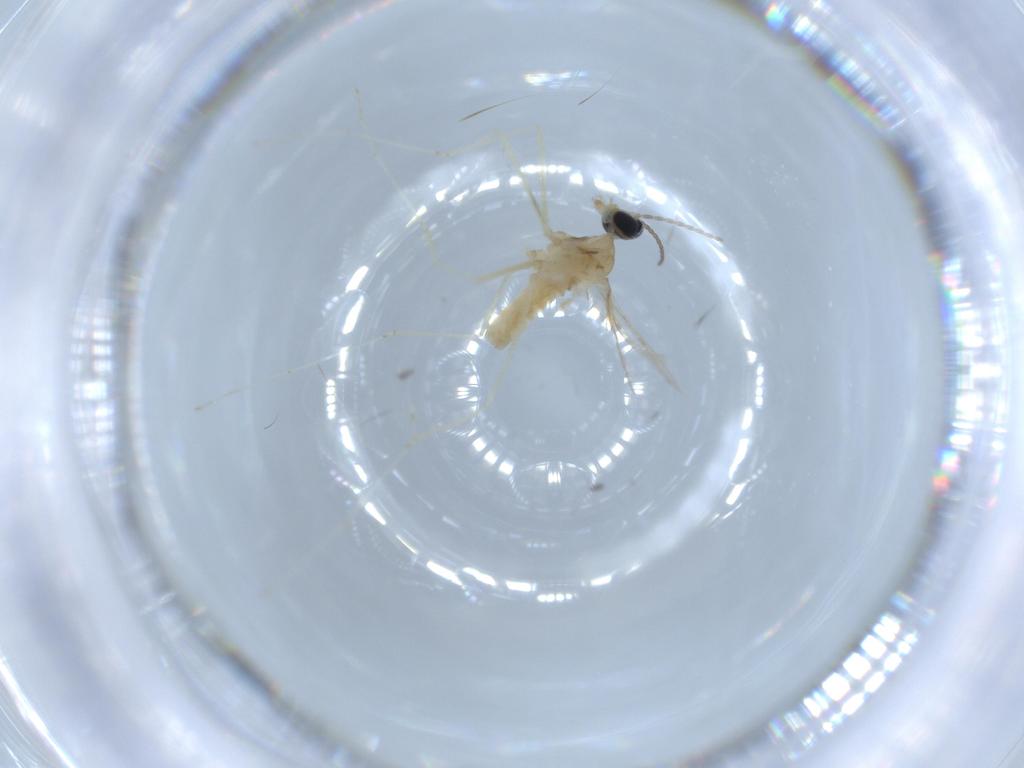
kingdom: Animalia
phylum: Arthropoda
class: Insecta
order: Diptera
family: Cecidomyiidae
